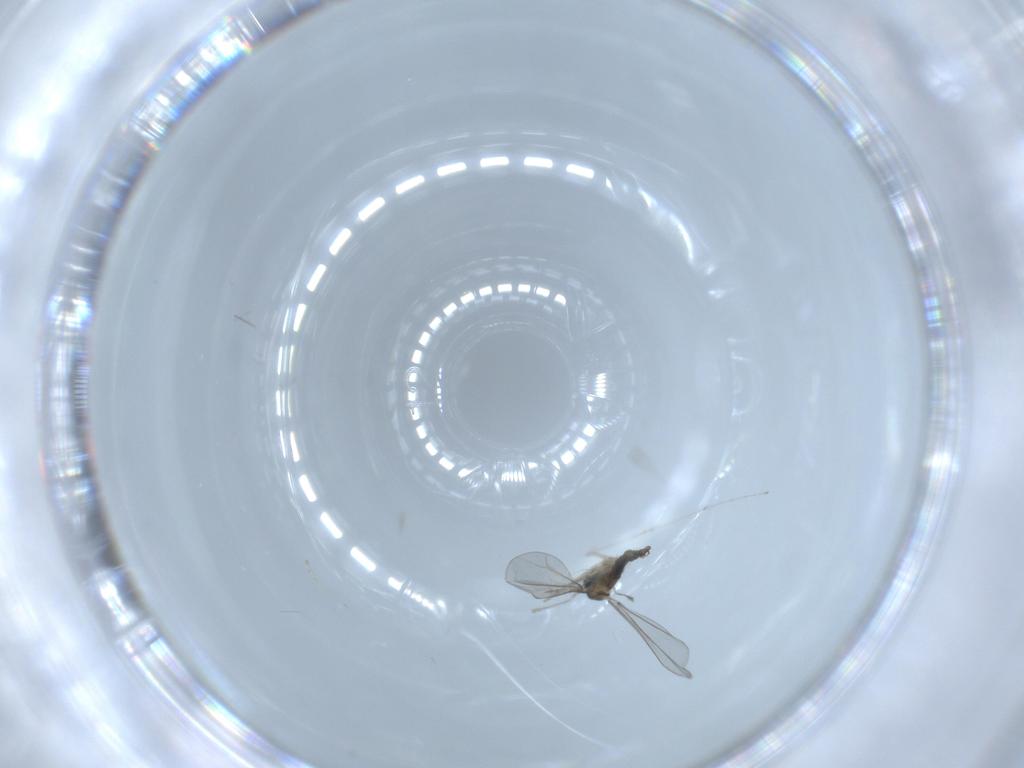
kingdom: Animalia
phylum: Arthropoda
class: Insecta
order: Diptera
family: Cecidomyiidae
